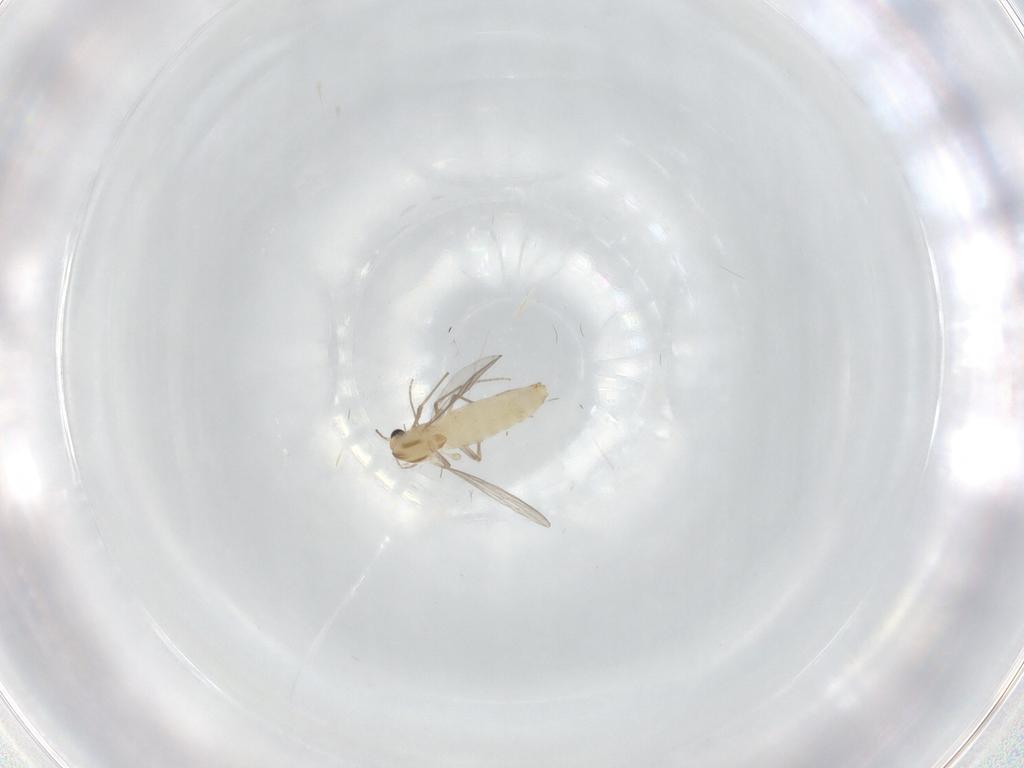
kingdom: Animalia
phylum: Arthropoda
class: Insecta
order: Diptera
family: Chironomidae
